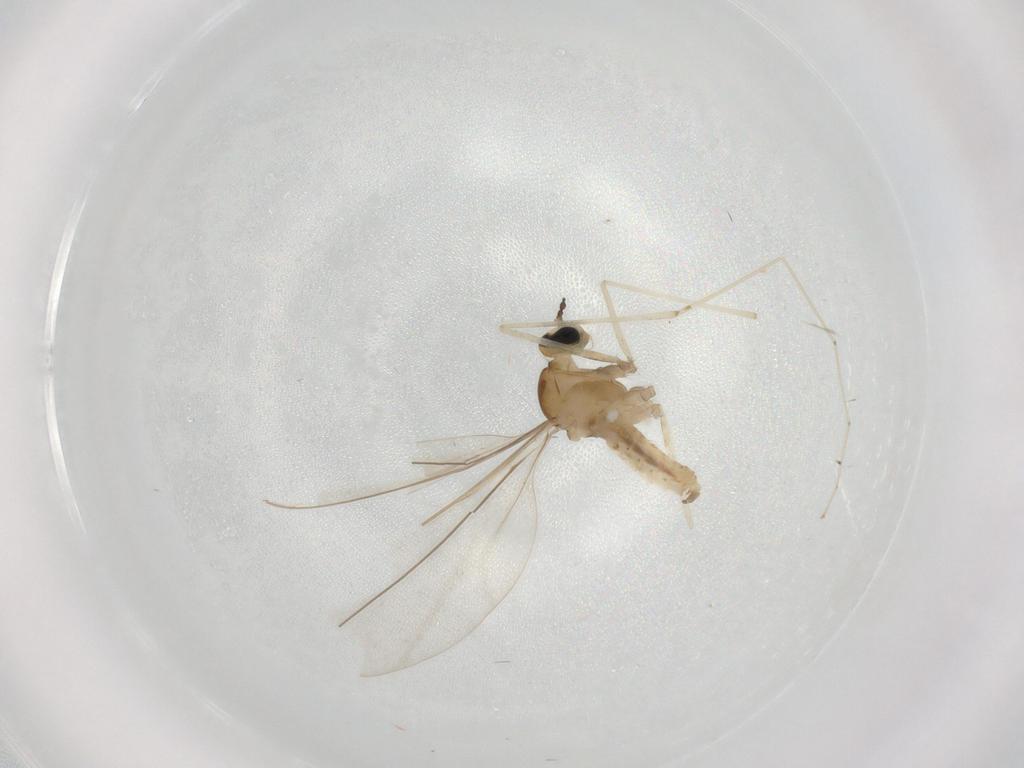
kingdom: Animalia
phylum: Arthropoda
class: Insecta
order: Diptera
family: Cecidomyiidae
